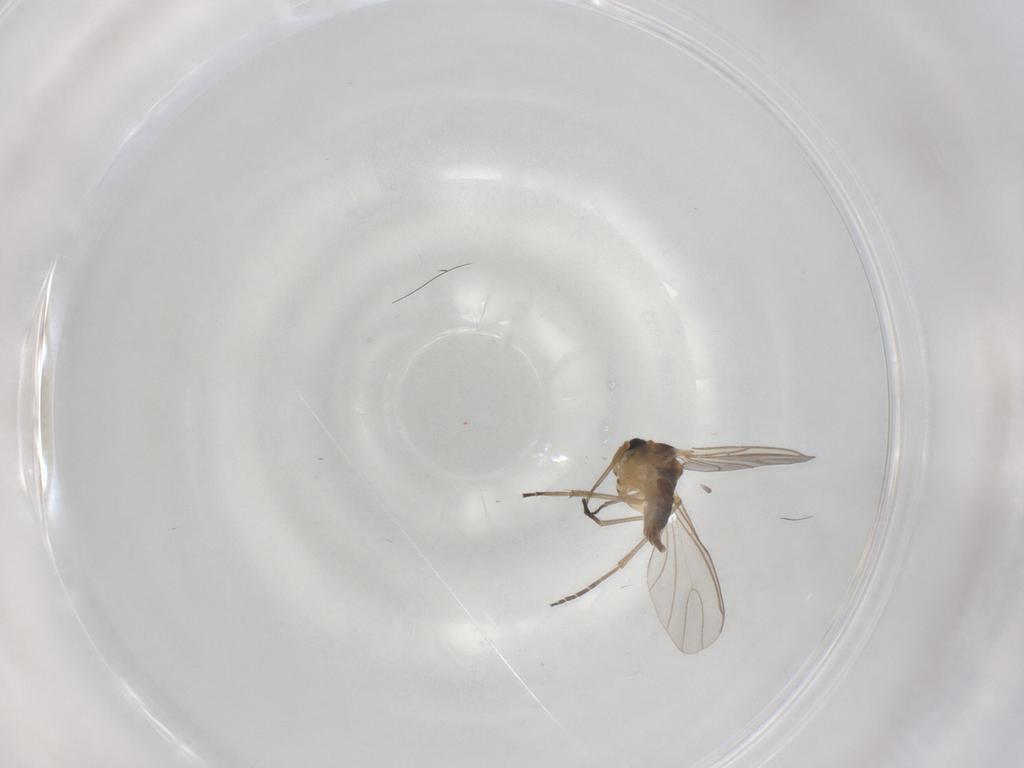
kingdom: Animalia
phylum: Arthropoda
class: Insecta
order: Diptera
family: Sciaridae
